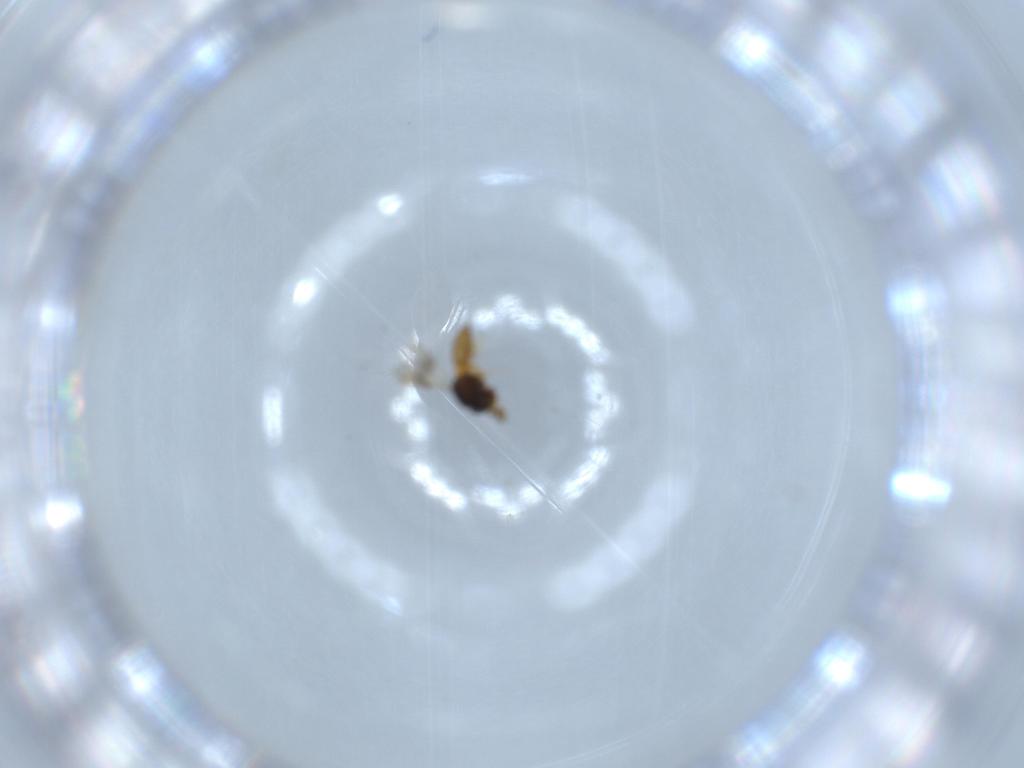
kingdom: Animalia
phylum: Arthropoda
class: Insecta
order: Hymenoptera
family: Scelionidae
